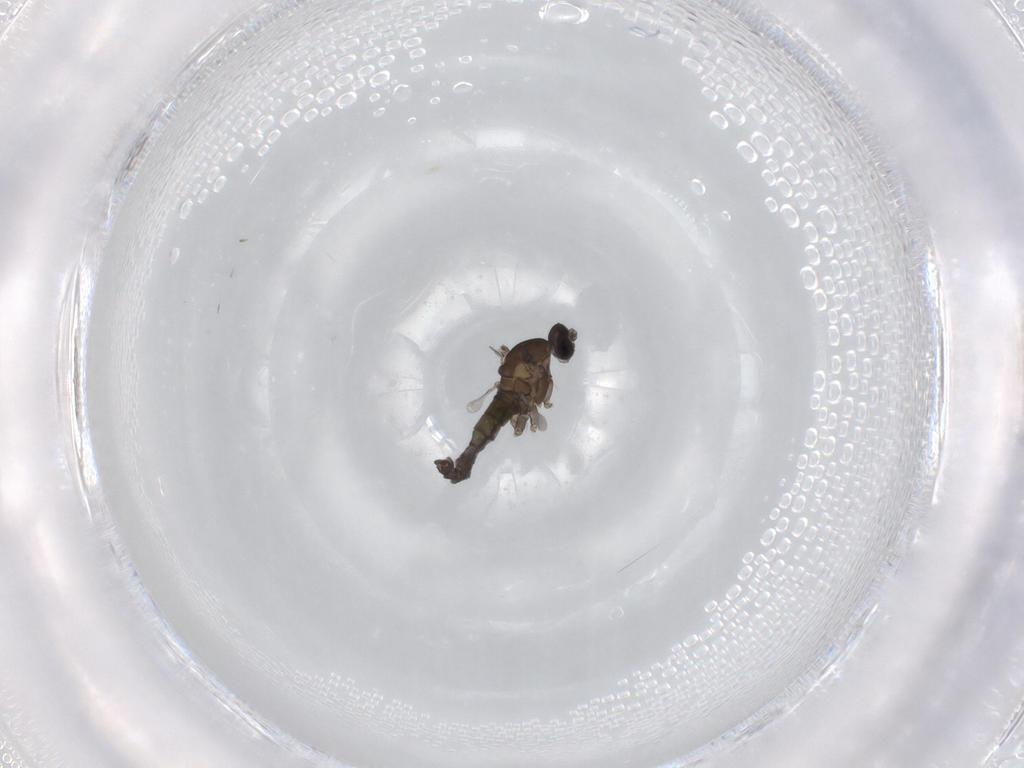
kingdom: Animalia
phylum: Arthropoda
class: Insecta
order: Diptera
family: Cecidomyiidae
